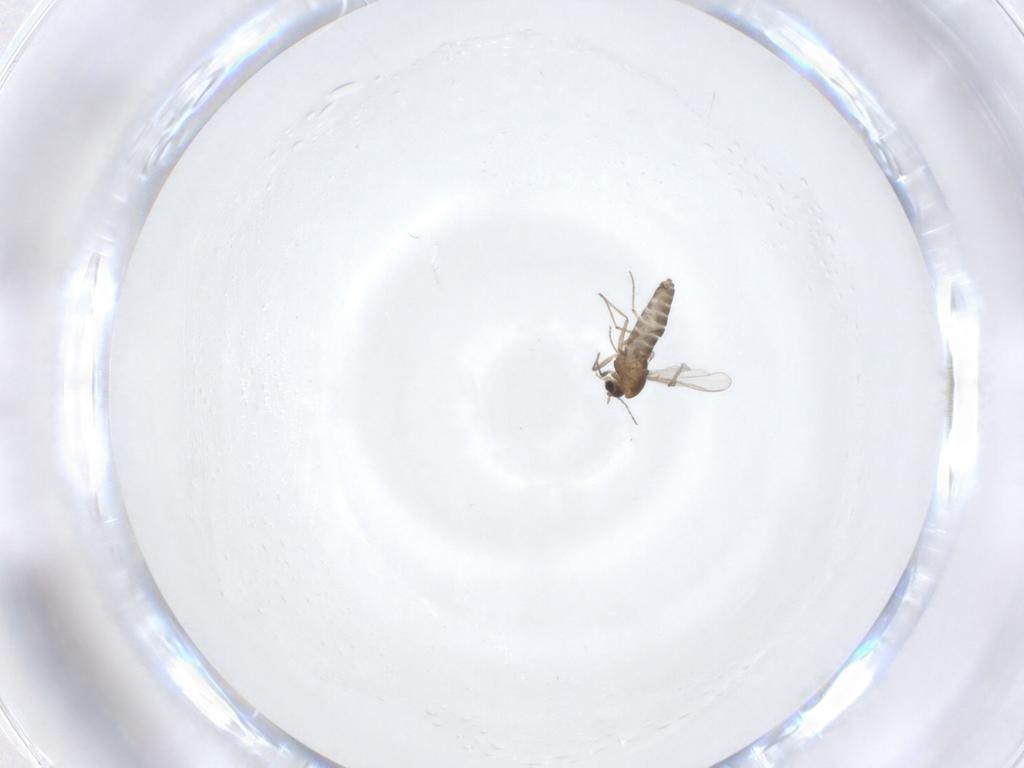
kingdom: Animalia
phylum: Arthropoda
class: Insecta
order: Diptera
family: Chironomidae
